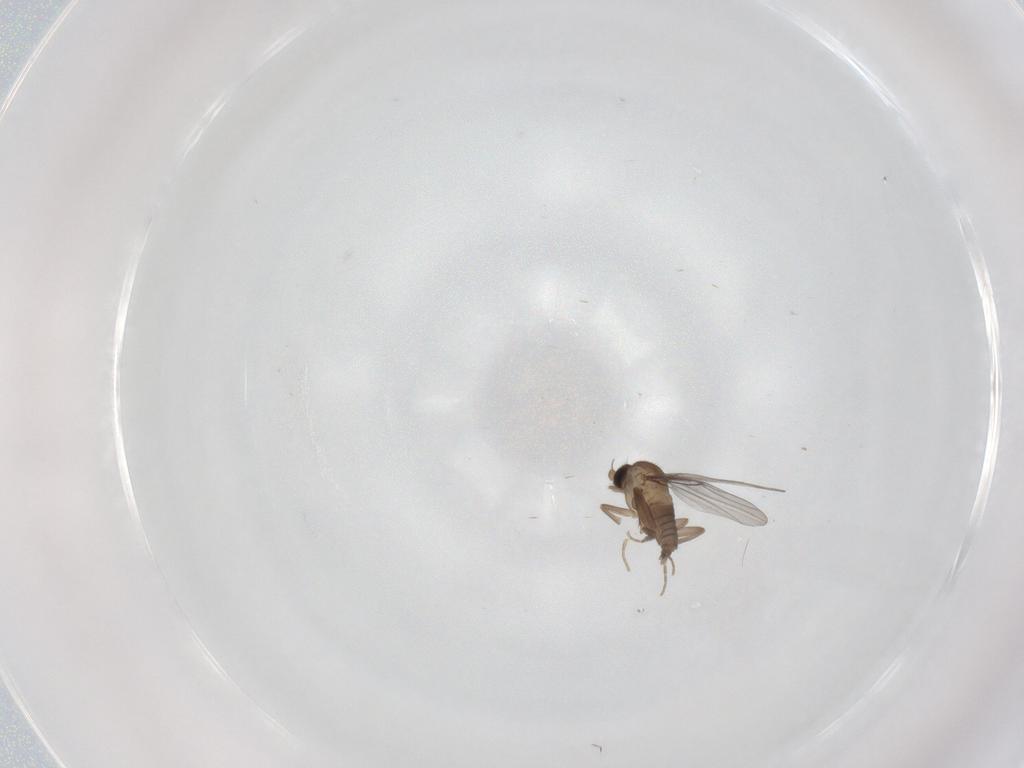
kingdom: Animalia
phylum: Arthropoda
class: Insecta
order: Diptera
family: Cecidomyiidae
